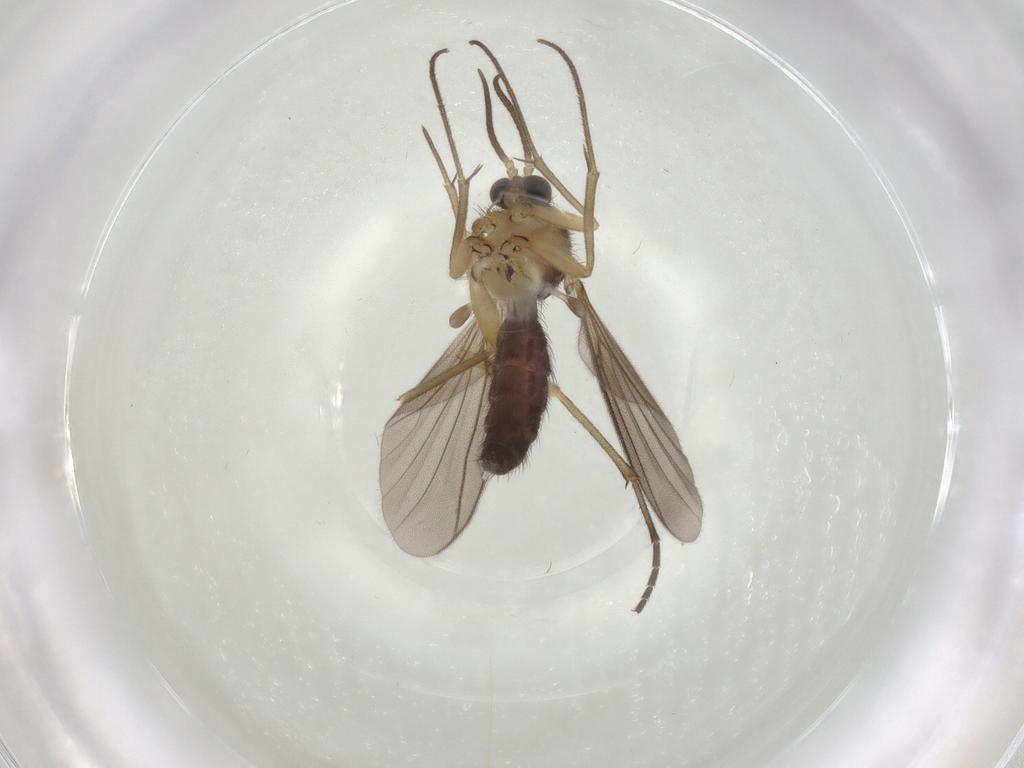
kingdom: Animalia
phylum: Arthropoda
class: Insecta
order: Diptera
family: Sciaridae
